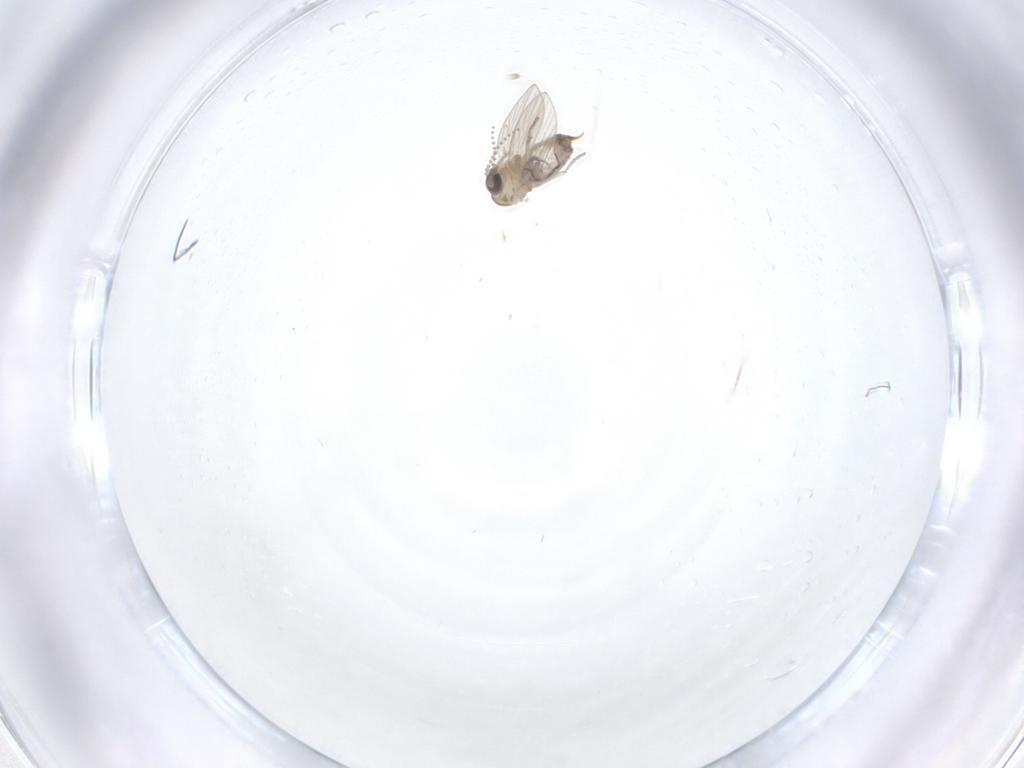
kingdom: Animalia
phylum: Arthropoda
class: Insecta
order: Diptera
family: Psychodidae
